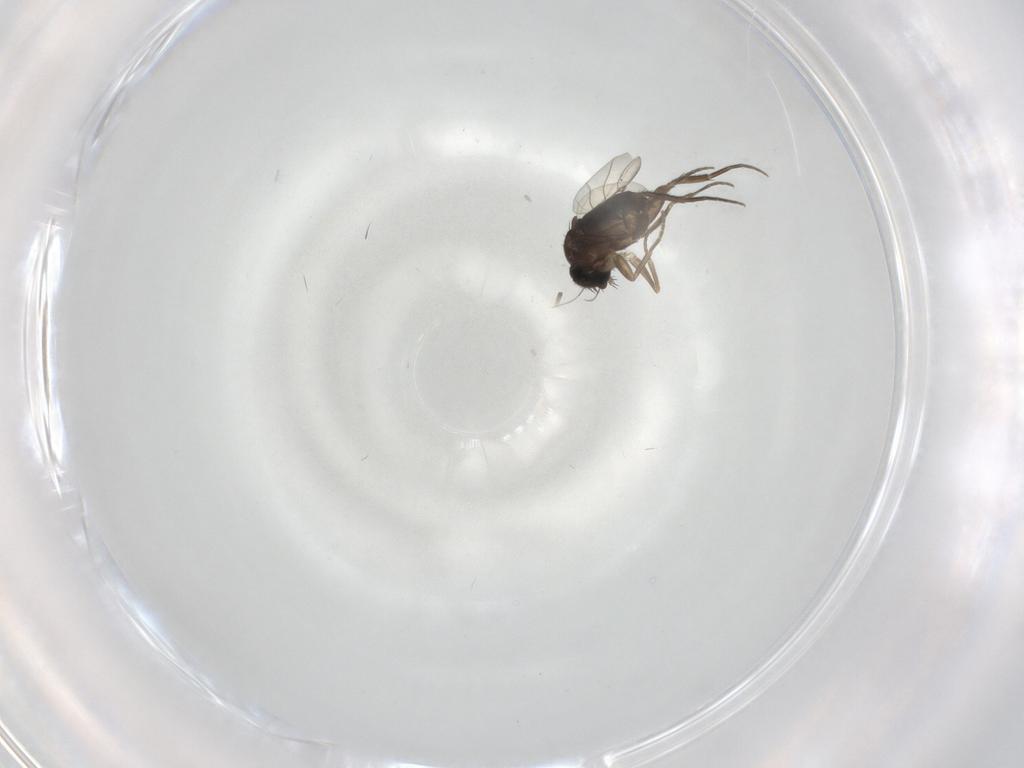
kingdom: Animalia
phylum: Arthropoda
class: Insecta
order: Diptera
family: Phoridae
